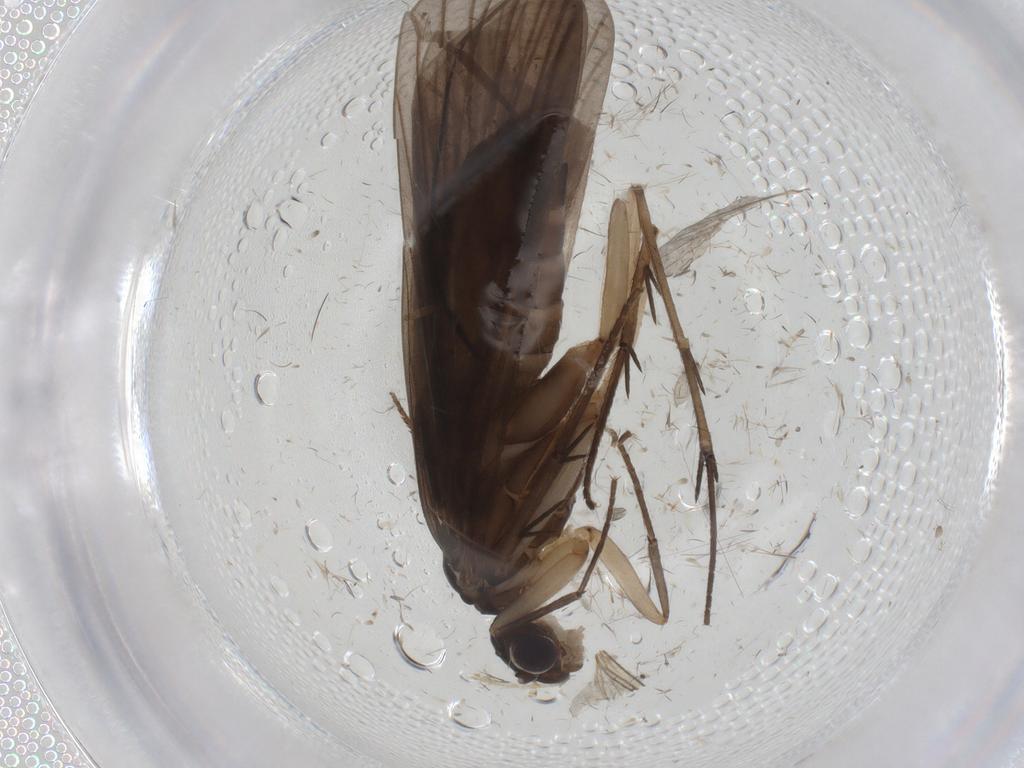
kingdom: Animalia
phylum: Arthropoda
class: Insecta
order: Trichoptera
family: Philopotamidae
